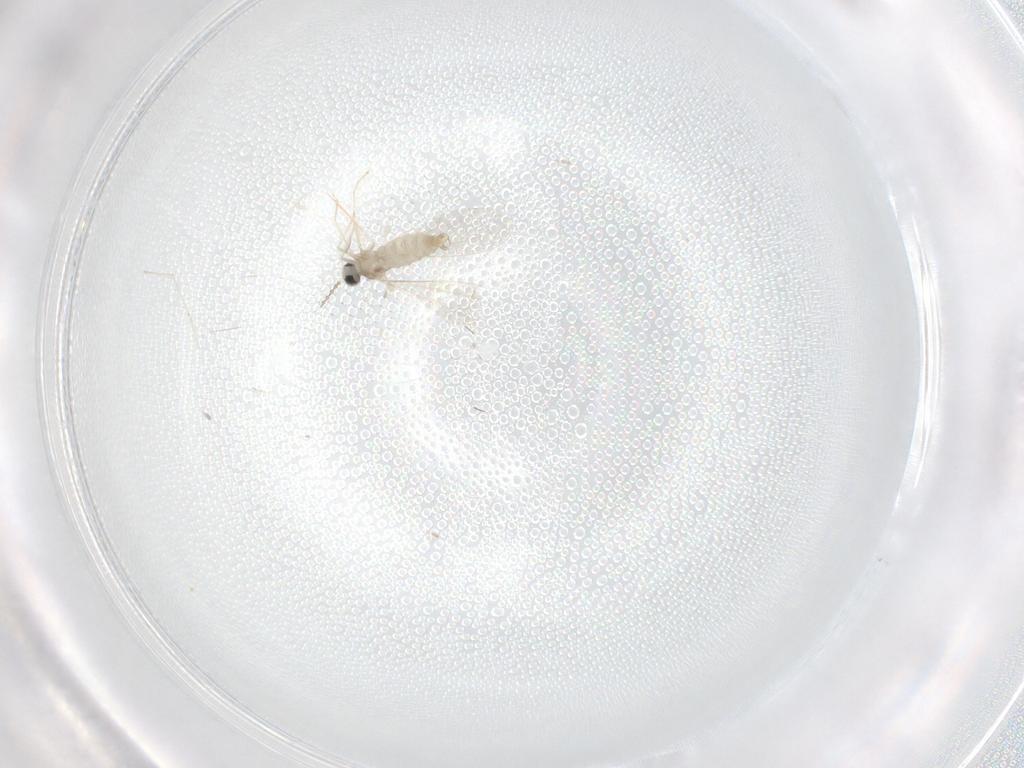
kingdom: Animalia
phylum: Arthropoda
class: Insecta
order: Diptera
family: Cecidomyiidae
